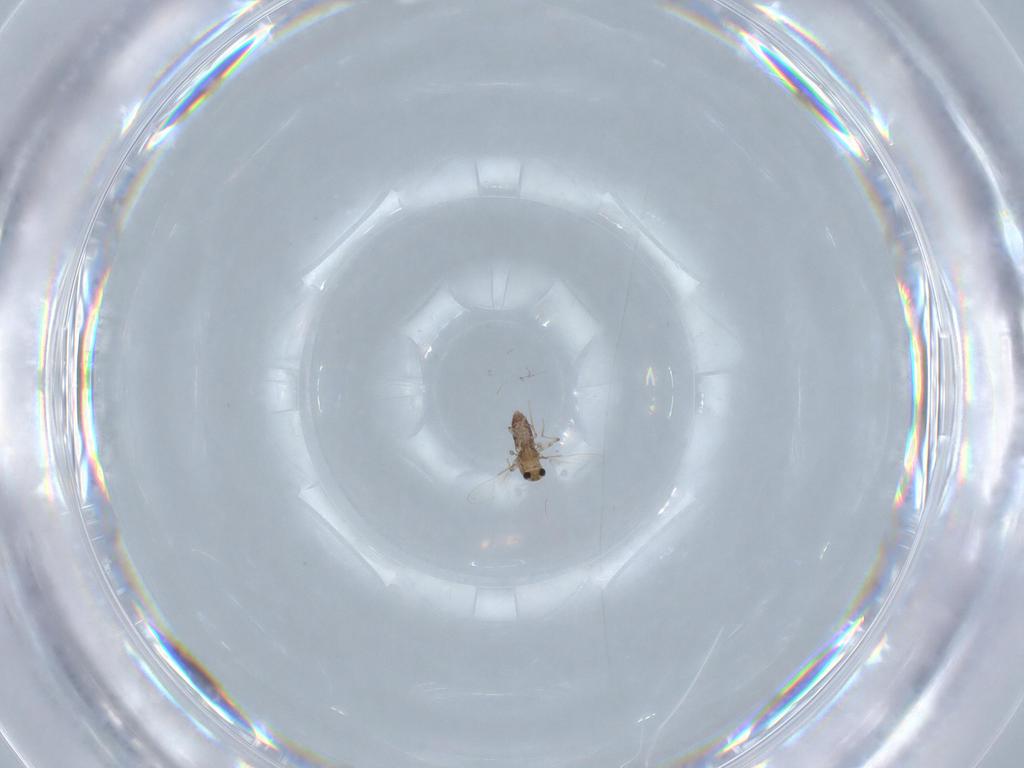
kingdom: Animalia
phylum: Arthropoda
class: Insecta
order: Diptera
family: Chironomidae
